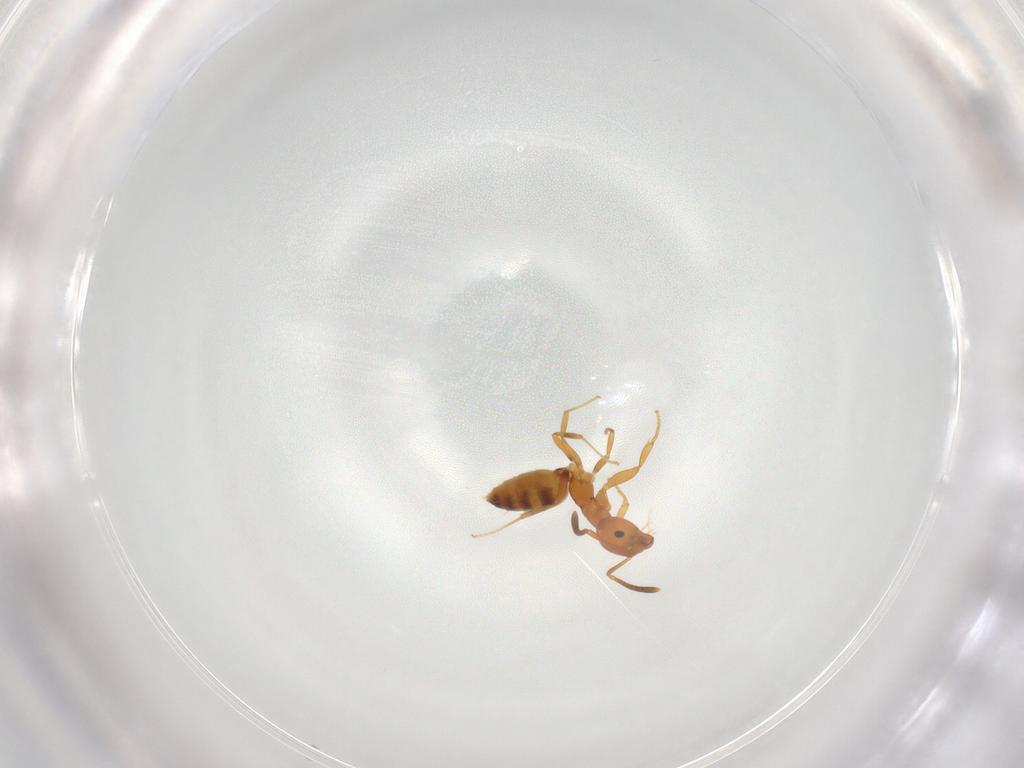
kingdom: Animalia
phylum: Arthropoda
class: Insecta
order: Hymenoptera
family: Formicidae
